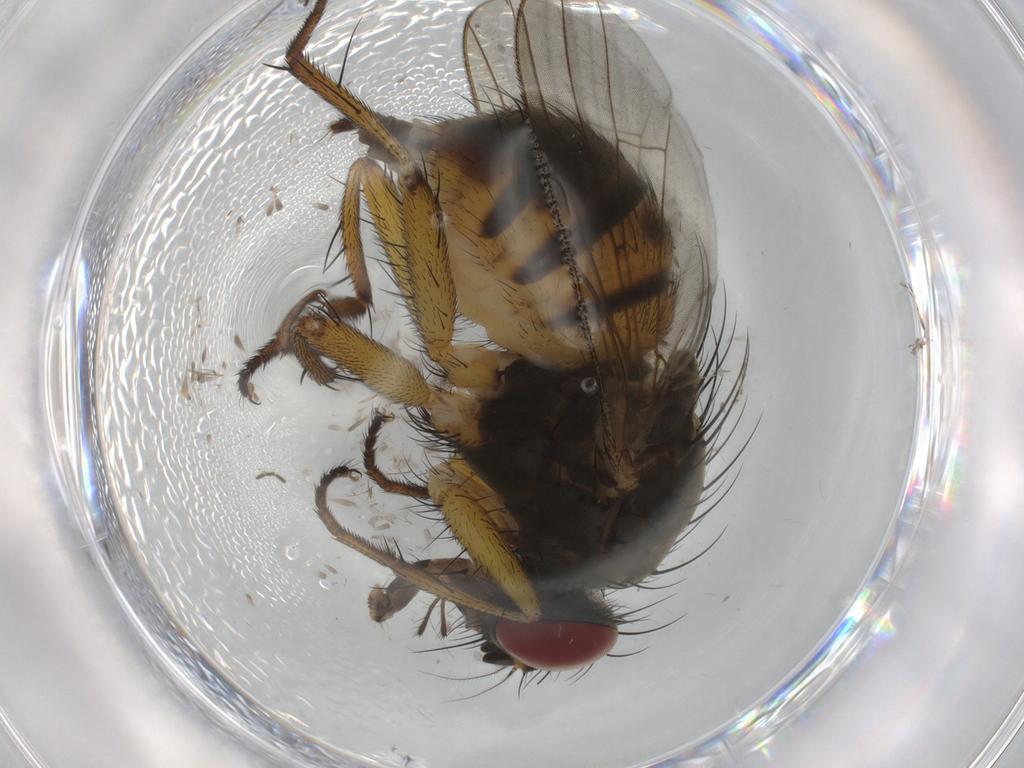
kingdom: Animalia
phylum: Arthropoda
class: Insecta
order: Diptera
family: Muscidae
